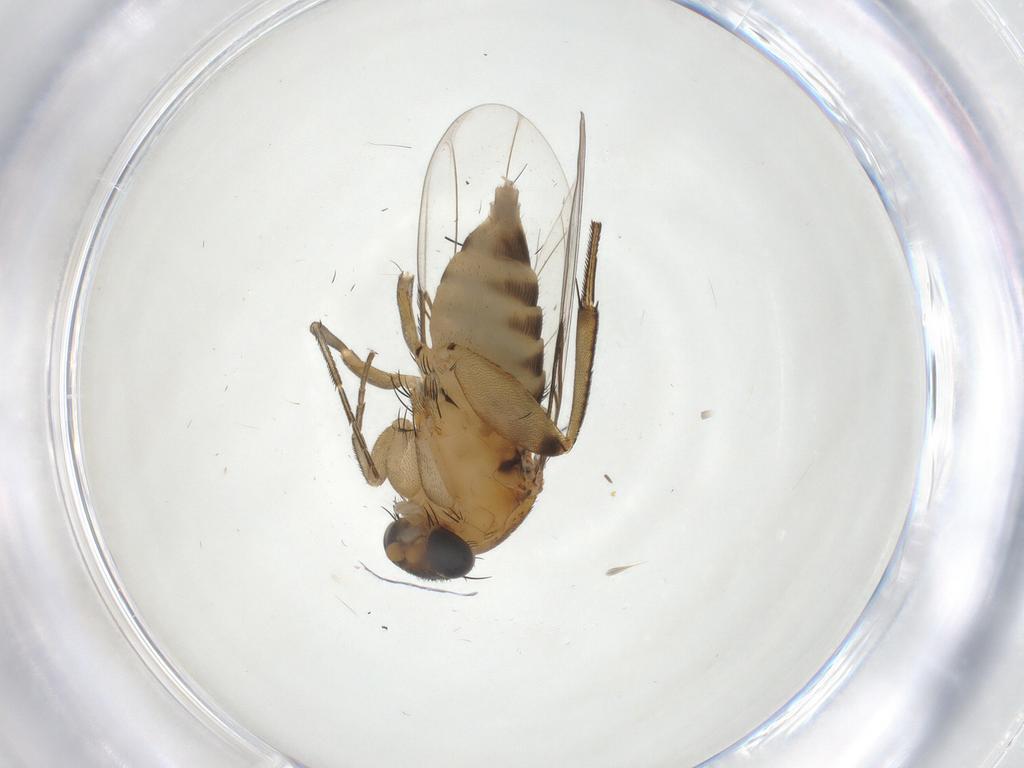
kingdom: Animalia
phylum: Arthropoda
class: Insecta
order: Diptera
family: Phoridae
